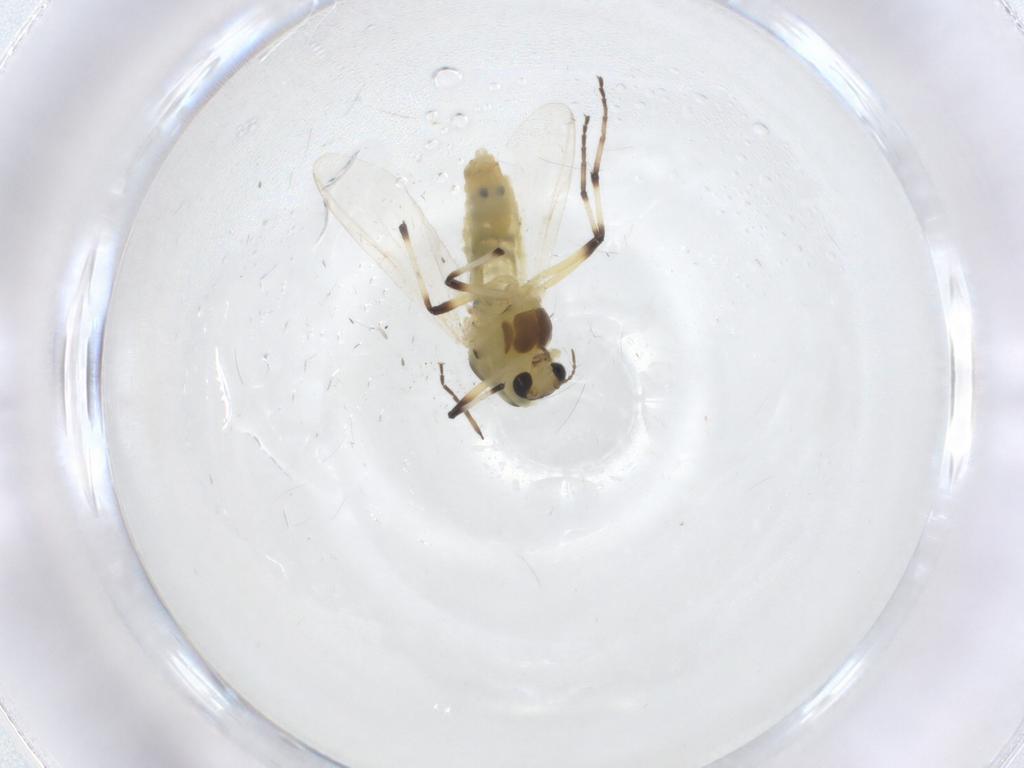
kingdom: Animalia
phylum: Arthropoda
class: Insecta
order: Diptera
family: Chironomidae
